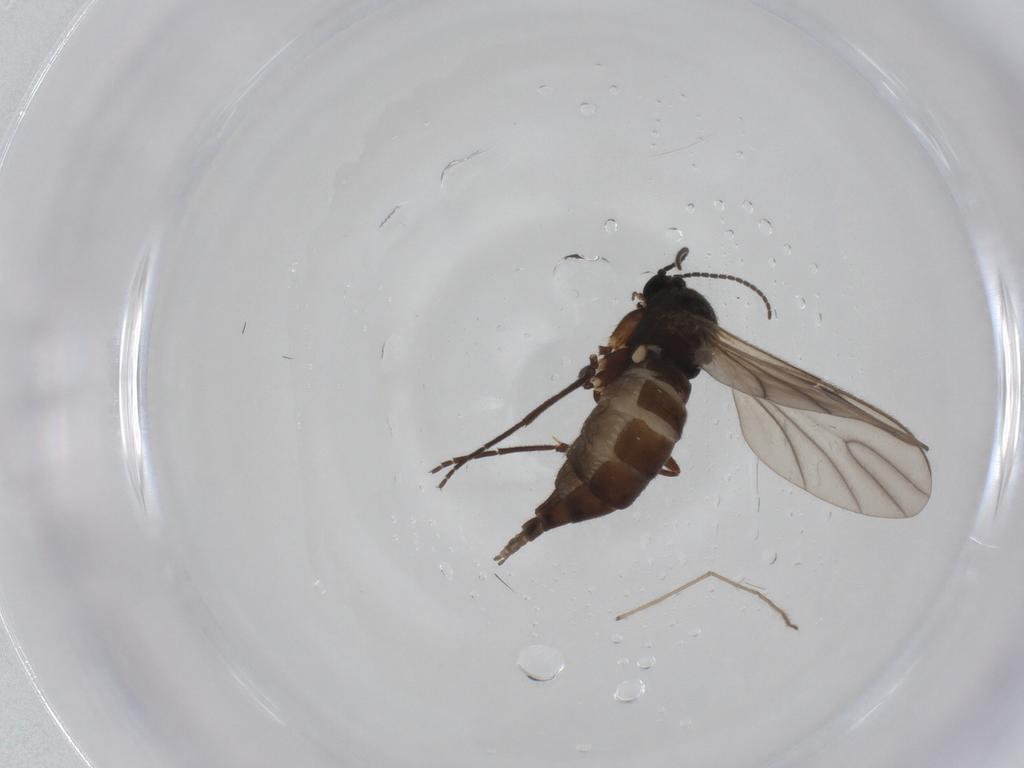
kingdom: Animalia
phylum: Arthropoda
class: Insecta
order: Diptera
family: Sciaridae
